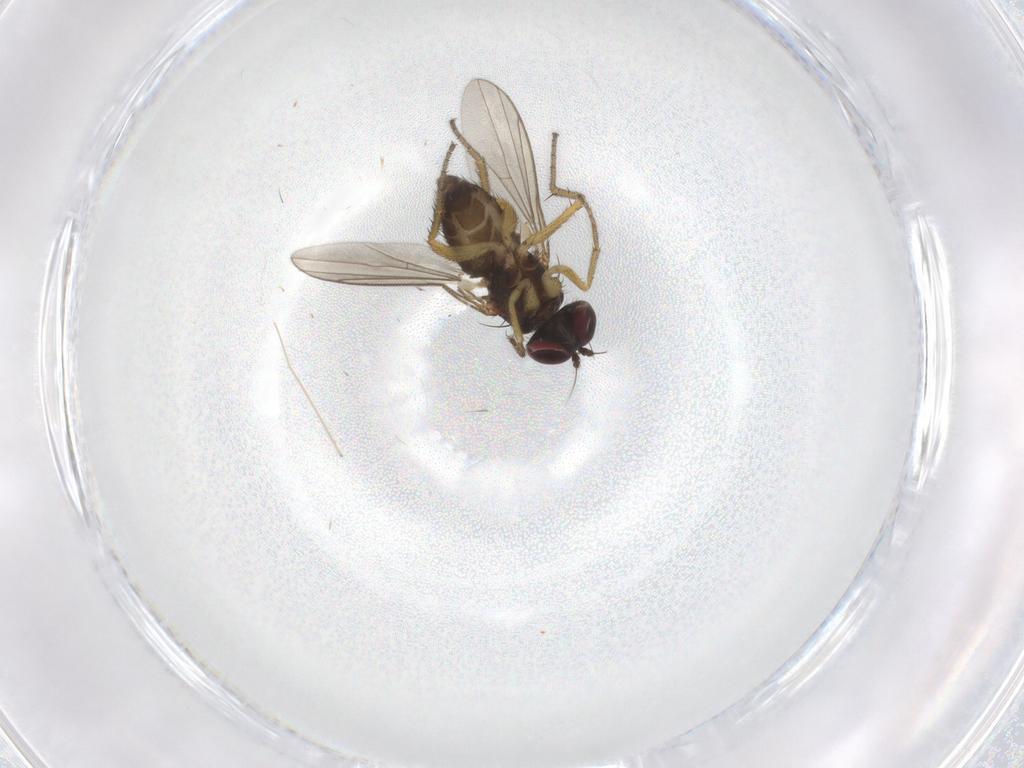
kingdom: Animalia
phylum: Arthropoda
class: Insecta
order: Diptera
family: Dolichopodidae
